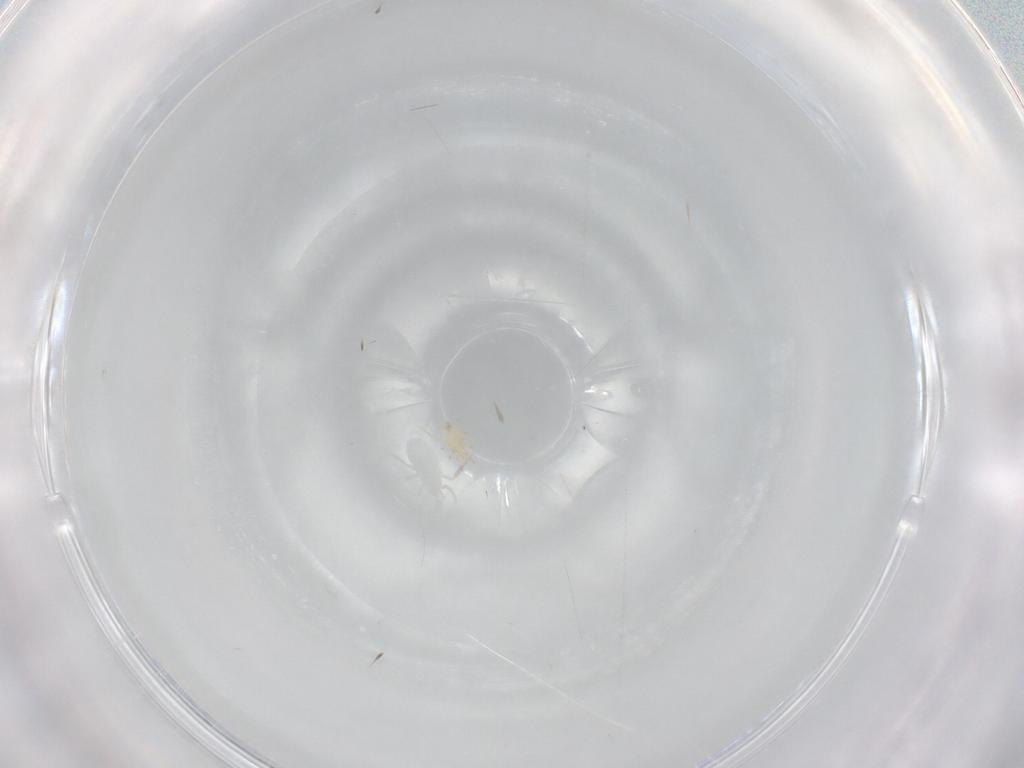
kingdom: Animalia
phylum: Arthropoda
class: Arachnida
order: Mesostigmata
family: Phytoseiidae
